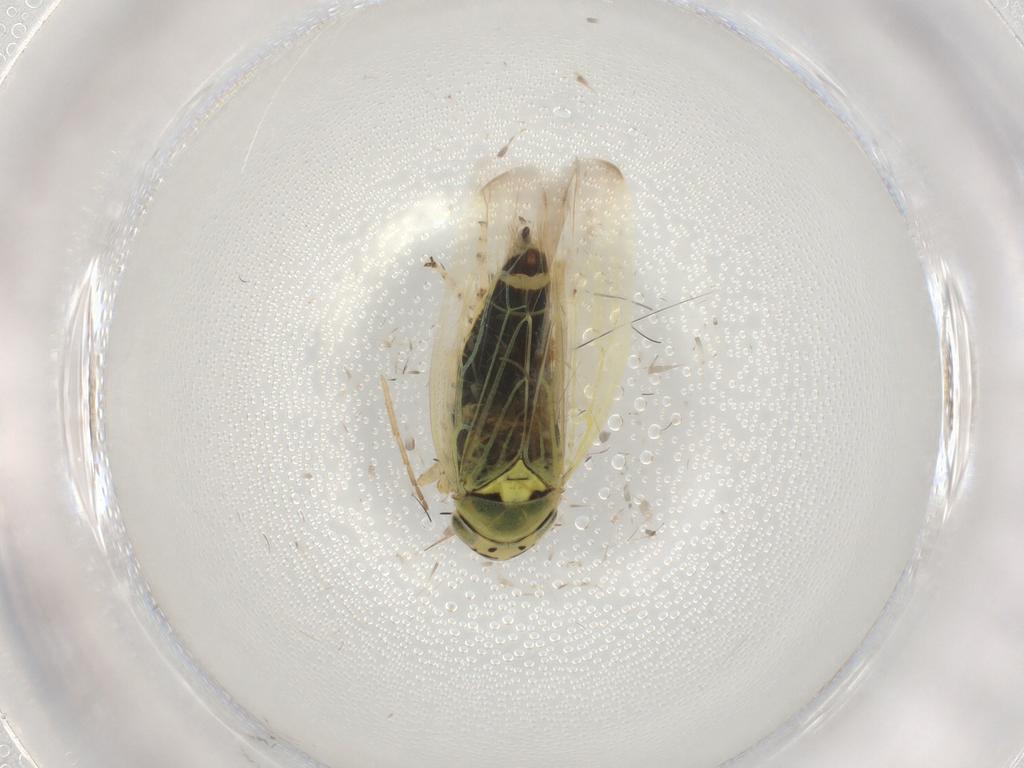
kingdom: Animalia
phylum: Arthropoda
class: Insecta
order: Hemiptera
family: Cicadellidae
